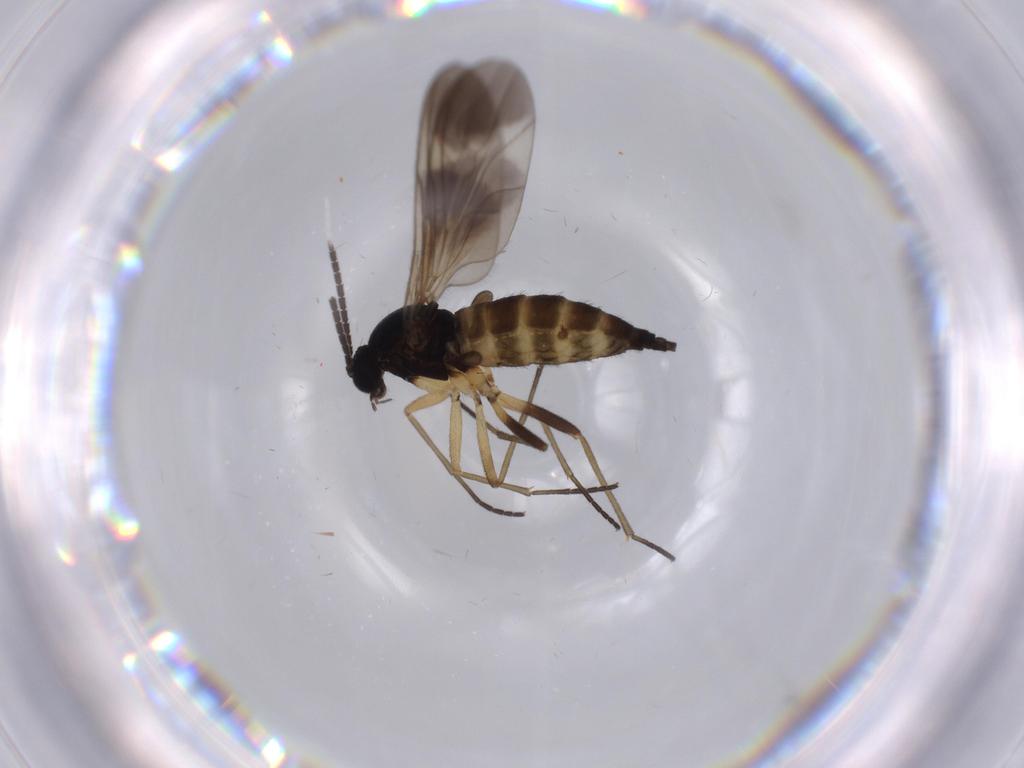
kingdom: Animalia
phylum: Arthropoda
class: Insecta
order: Diptera
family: Sciaridae
